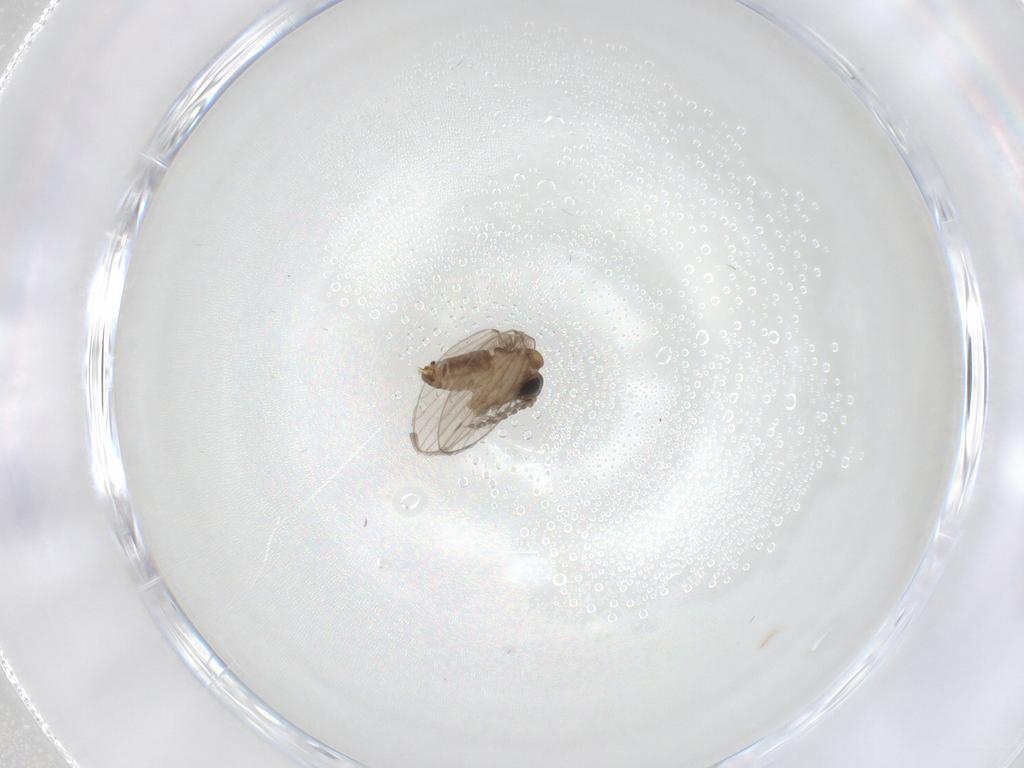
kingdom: Animalia
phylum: Arthropoda
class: Insecta
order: Diptera
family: Psychodidae
